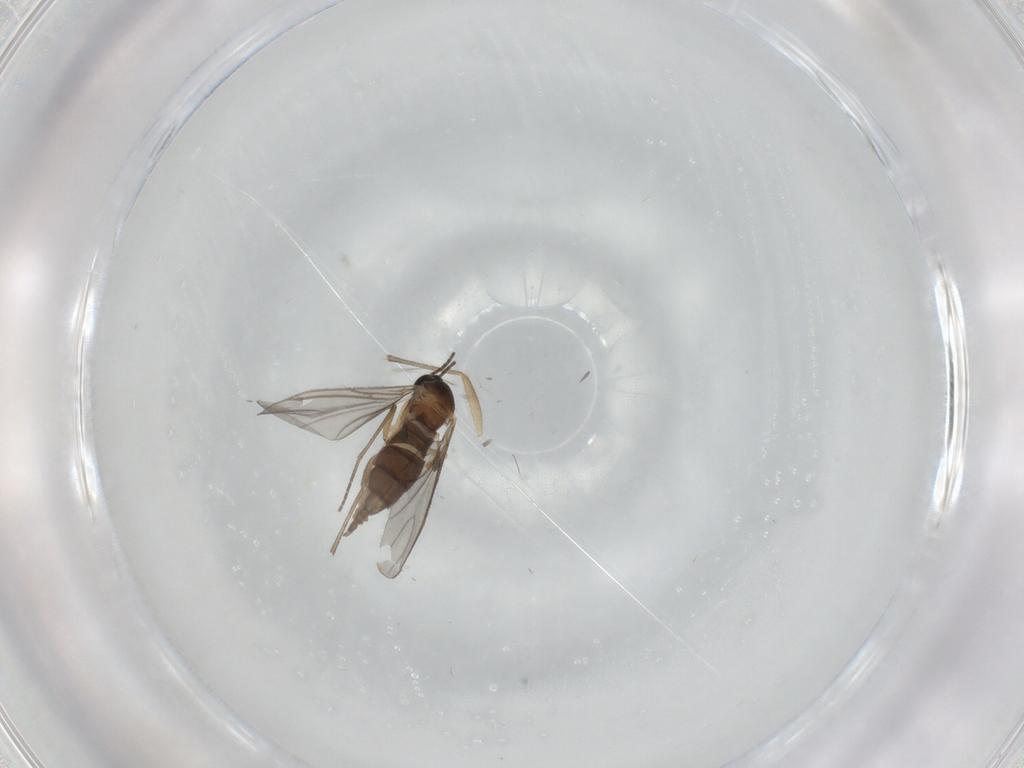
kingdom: Animalia
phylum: Arthropoda
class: Insecta
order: Diptera
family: Sciaridae
